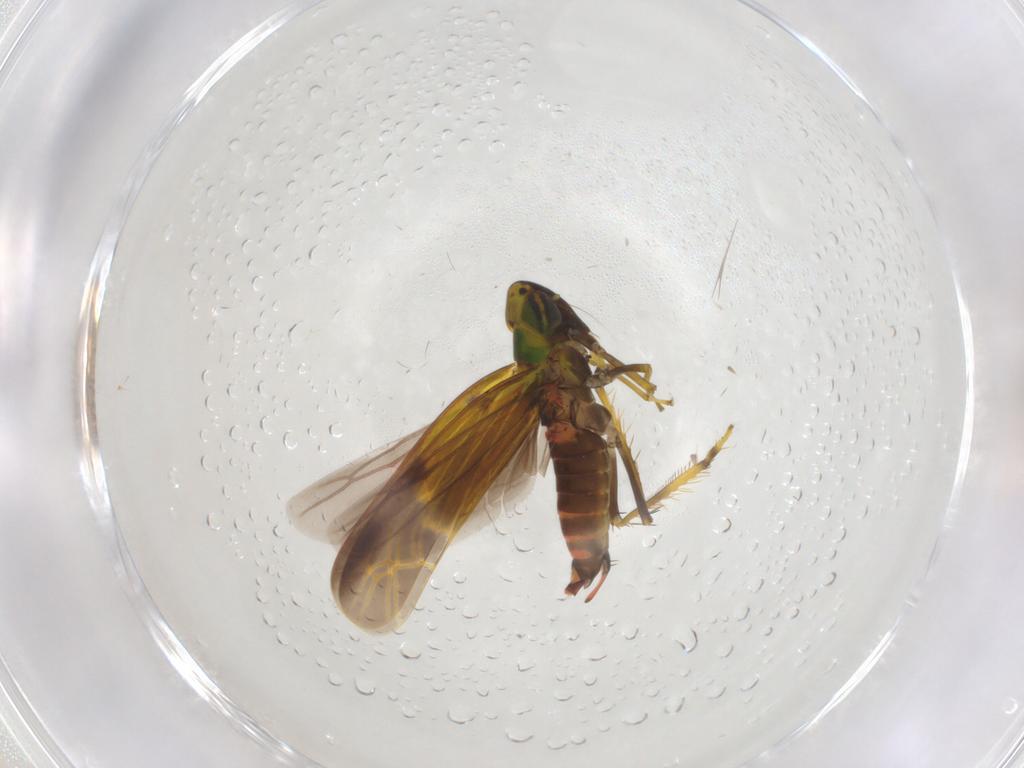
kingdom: Animalia
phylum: Arthropoda
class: Insecta
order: Hemiptera
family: Cicadellidae
